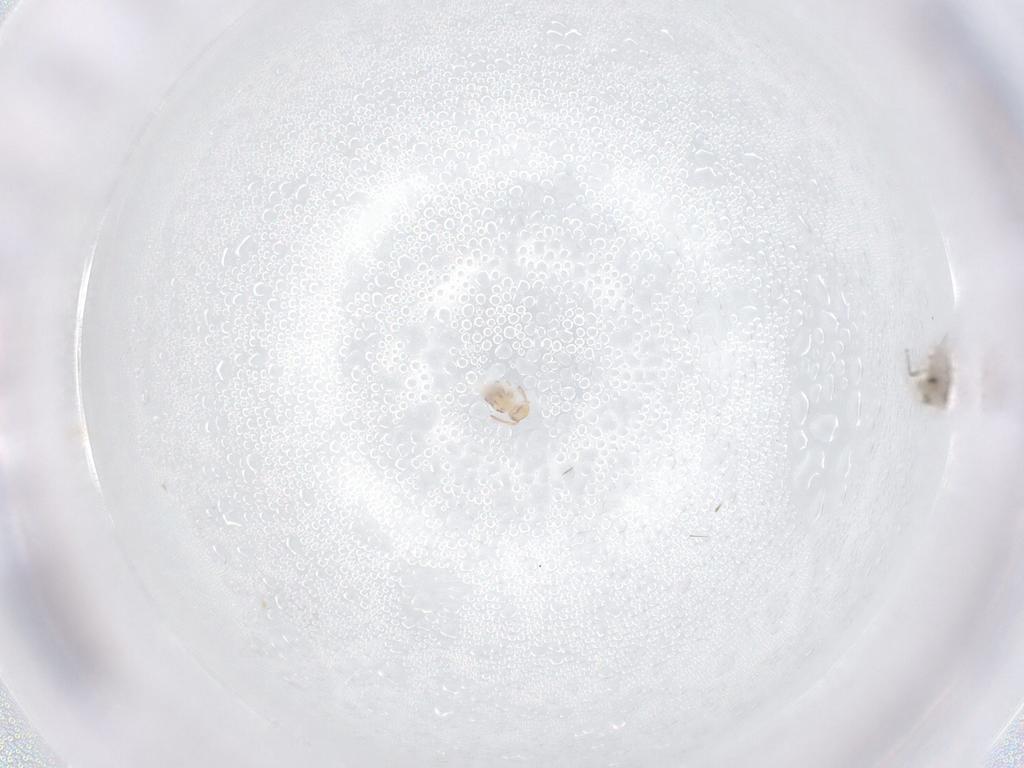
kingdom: Animalia
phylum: Arthropoda
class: Collembola
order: Symphypleona
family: Bourletiellidae
